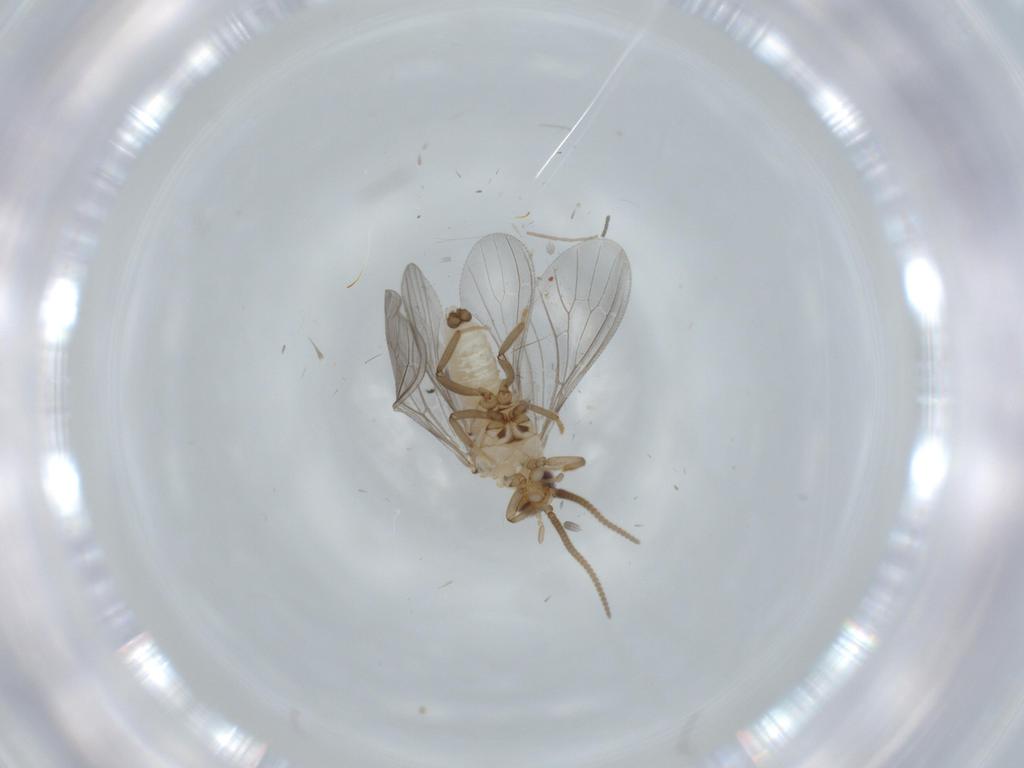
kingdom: Animalia
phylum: Arthropoda
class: Insecta
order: Neuroptera
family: Coniopterygidae
